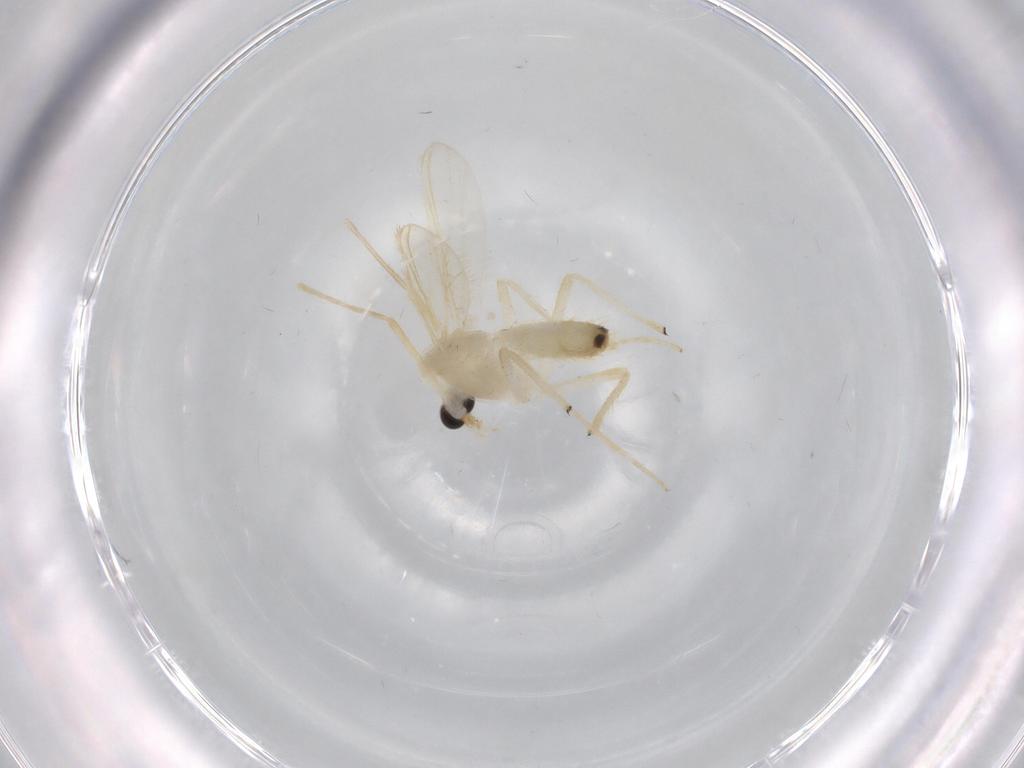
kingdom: Animalia
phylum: Arthropoda
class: Insecta
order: Diptera
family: Chironomidae
